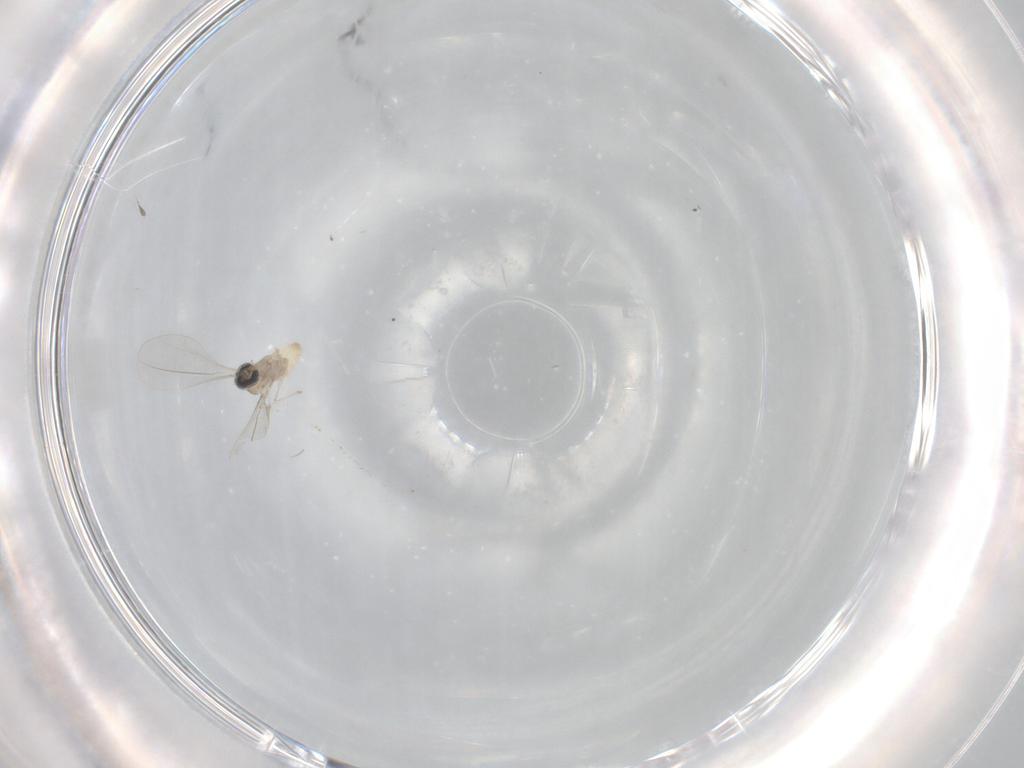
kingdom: Animalia
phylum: Arthropoda
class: Insecta
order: Diptera
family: Cecidomyiidae
